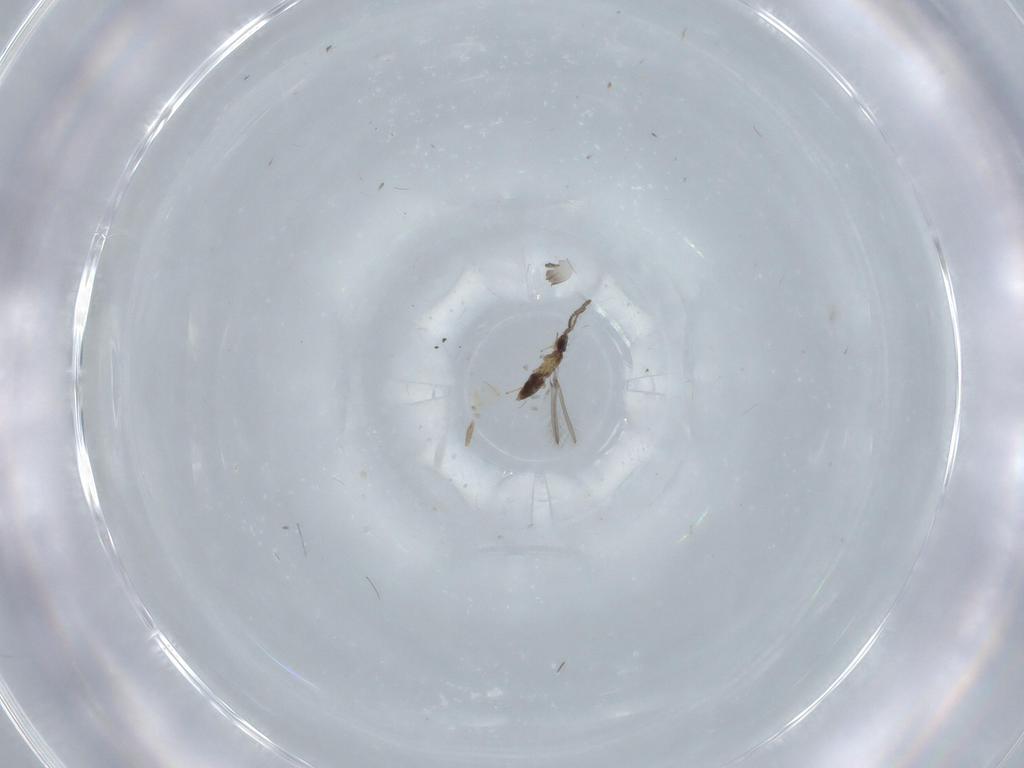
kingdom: Animalia
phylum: Arthropoda
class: Insecta
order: Hymenoptera
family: Mymaridae
